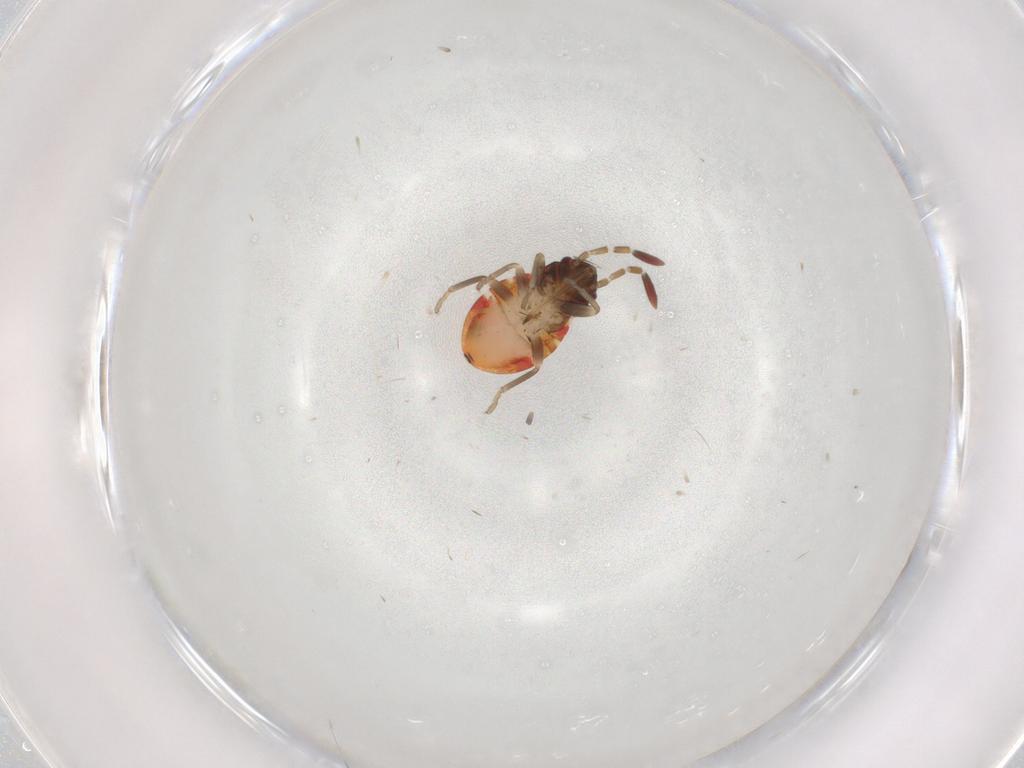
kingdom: Animalia
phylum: Arthropoda
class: Insecta
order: Hemiptera
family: Rhyparochromidae
